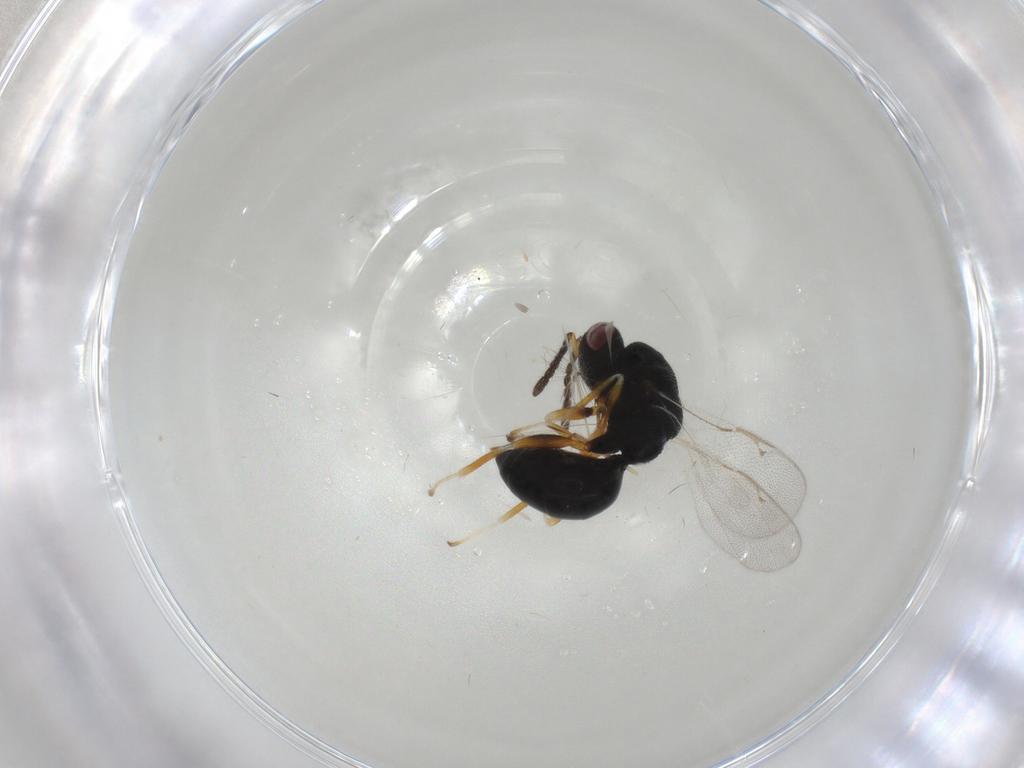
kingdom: Animalia
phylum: Arthropoda
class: Insecta
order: Hymenoptera
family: Eurytomidae
